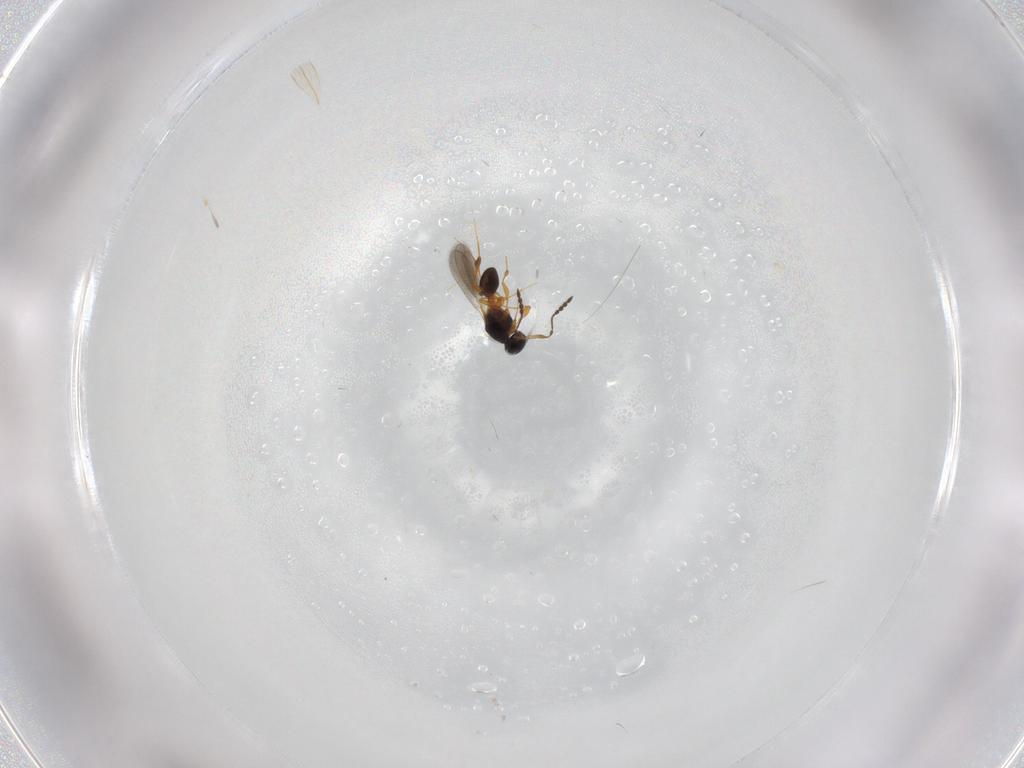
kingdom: Animalia
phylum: Arthropoda
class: Insecta
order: Hymenoptera
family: Platygastridae
